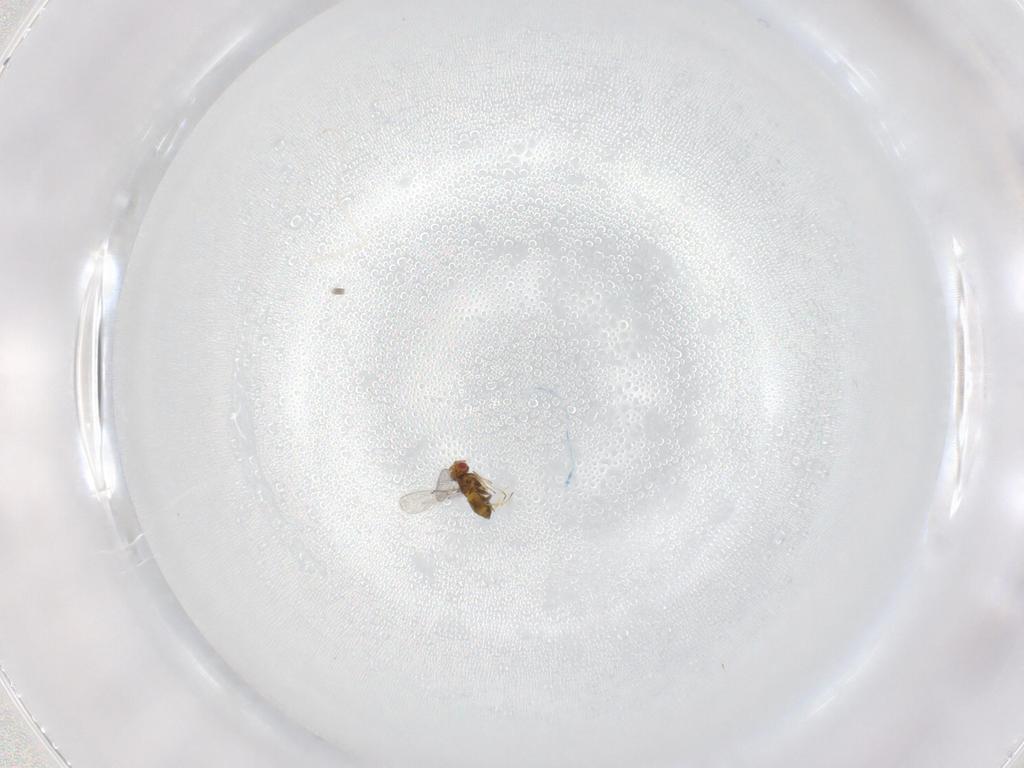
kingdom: Animalia
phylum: Arthropoda
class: Insecta
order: Hymenoptera
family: Trichogrammatidae
